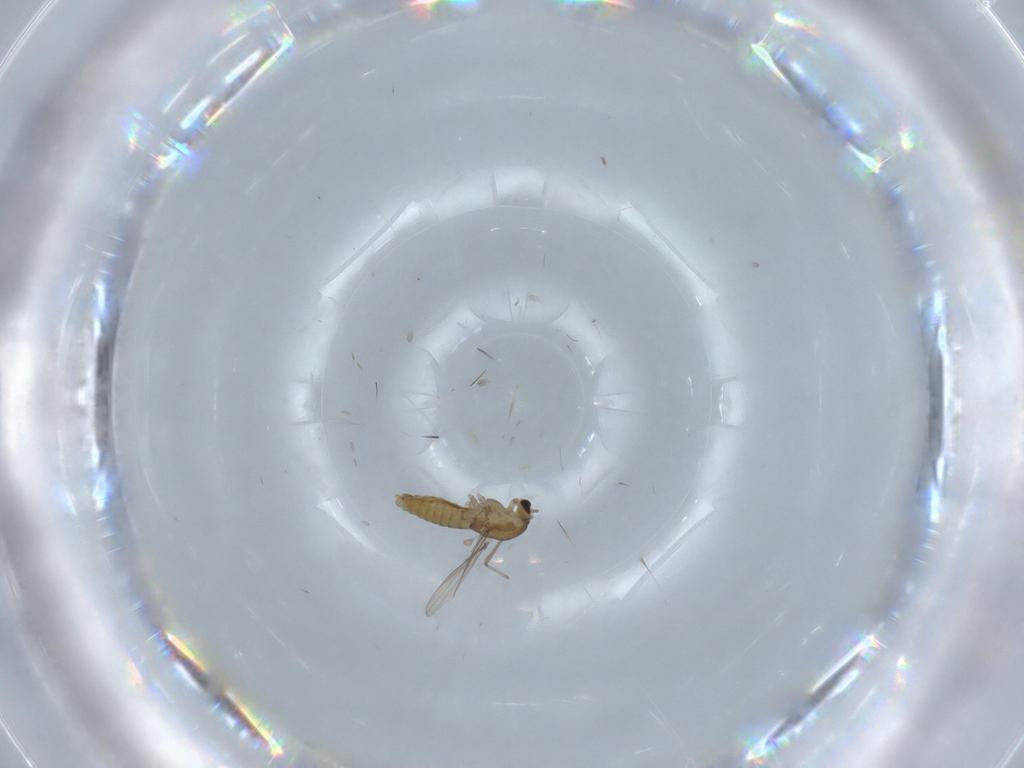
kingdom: Animalia
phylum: Arthropoda
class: Insecta
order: Diptera
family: Chironomidae
